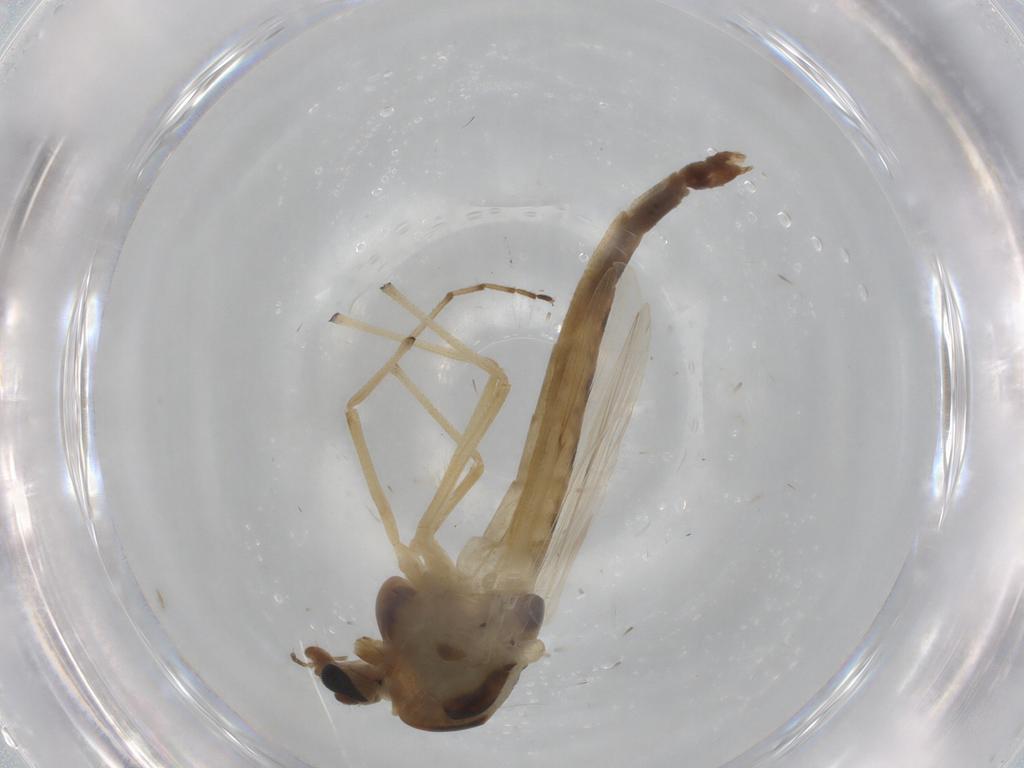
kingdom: Animalia
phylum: Arthropoda
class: Insecta
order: Diptera
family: Chironomidae
